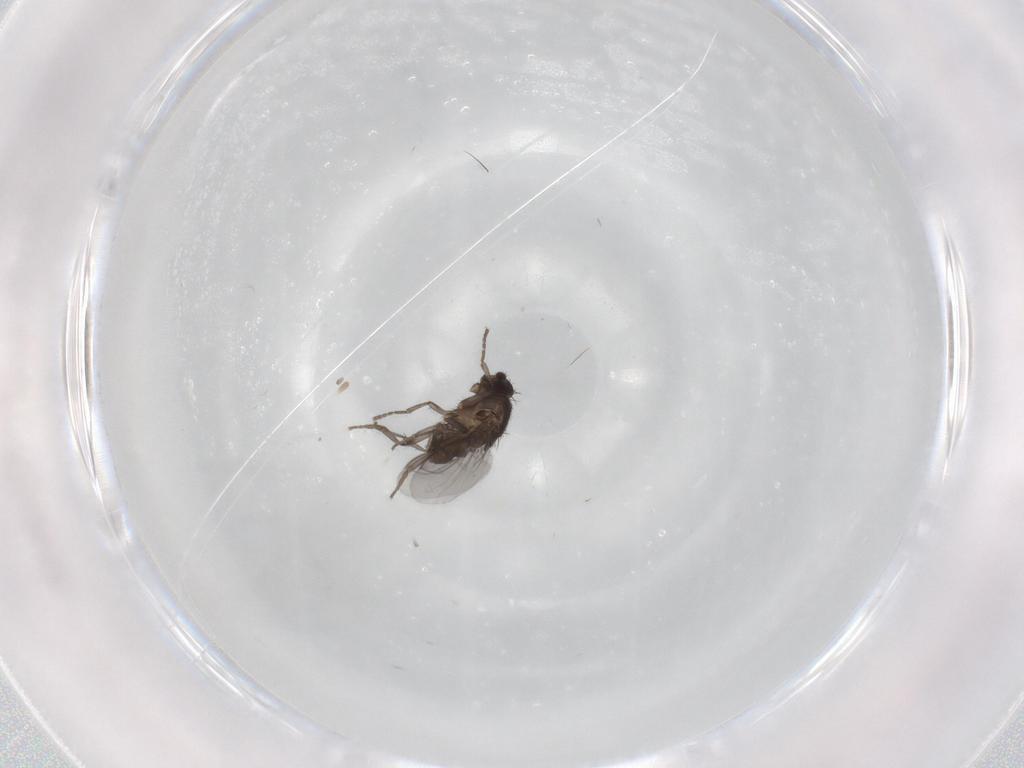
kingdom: Animalia
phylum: Arthropoda
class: Insecta
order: Diptera
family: Sphaeroceridae
